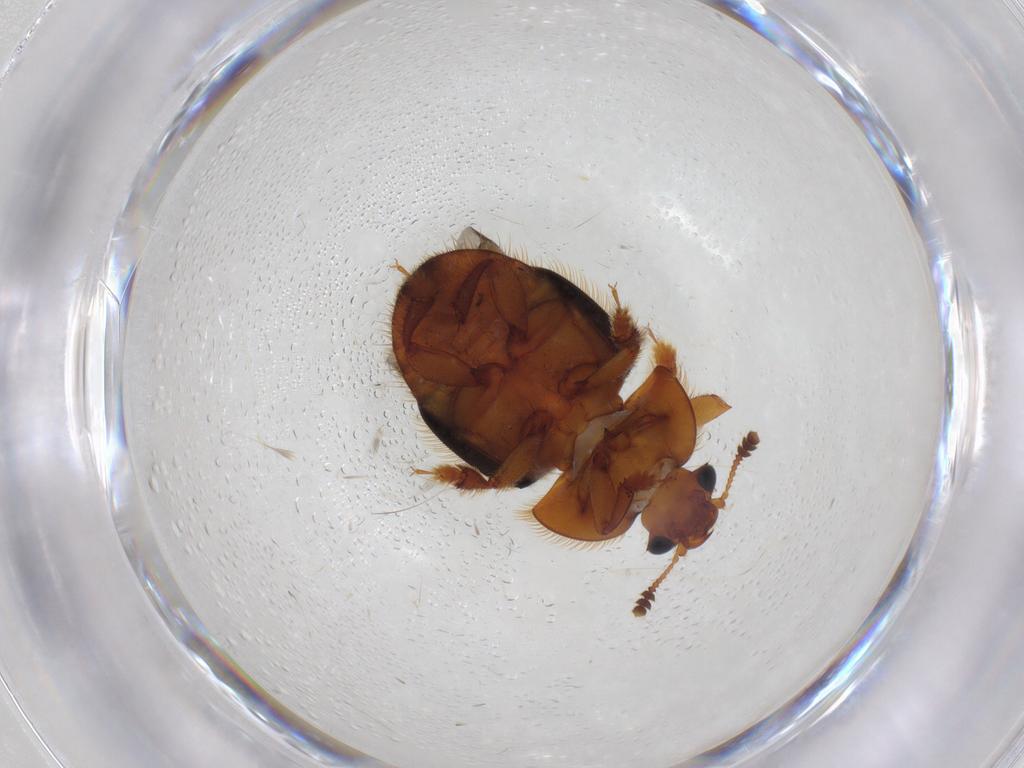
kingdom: Animalia
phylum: Arthropoda
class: Insecta
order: Coleoptera
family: Nitidulidae
